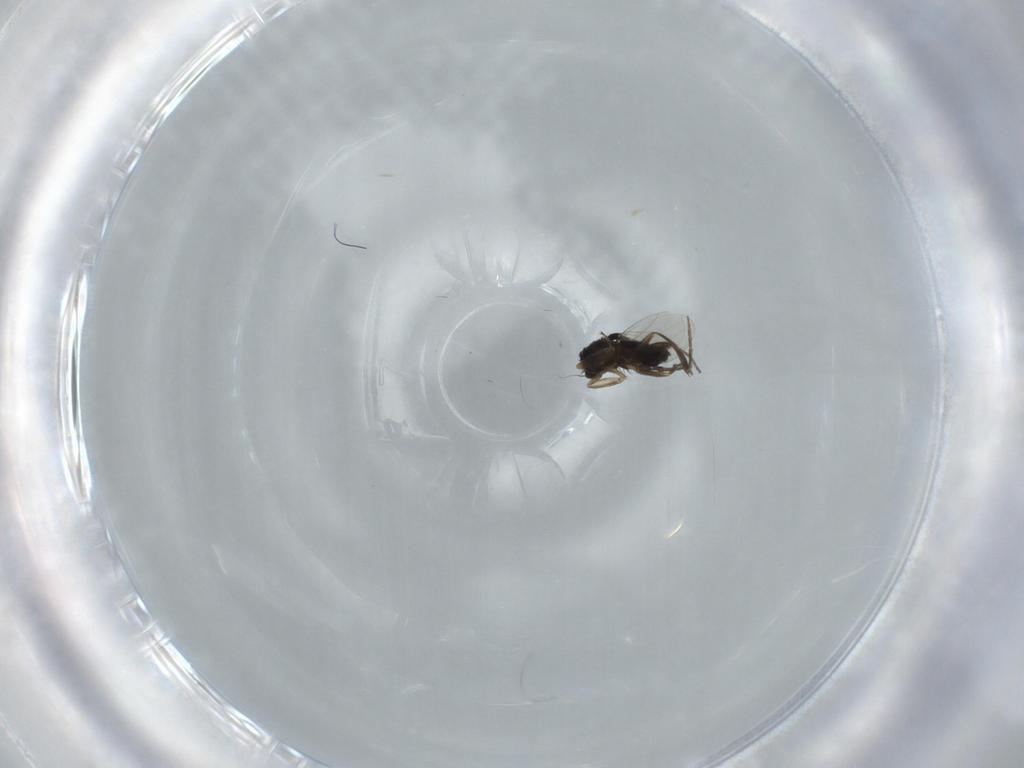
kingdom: Animalia
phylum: Arthropoda
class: Insecta
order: Diptera
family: Phoridae
